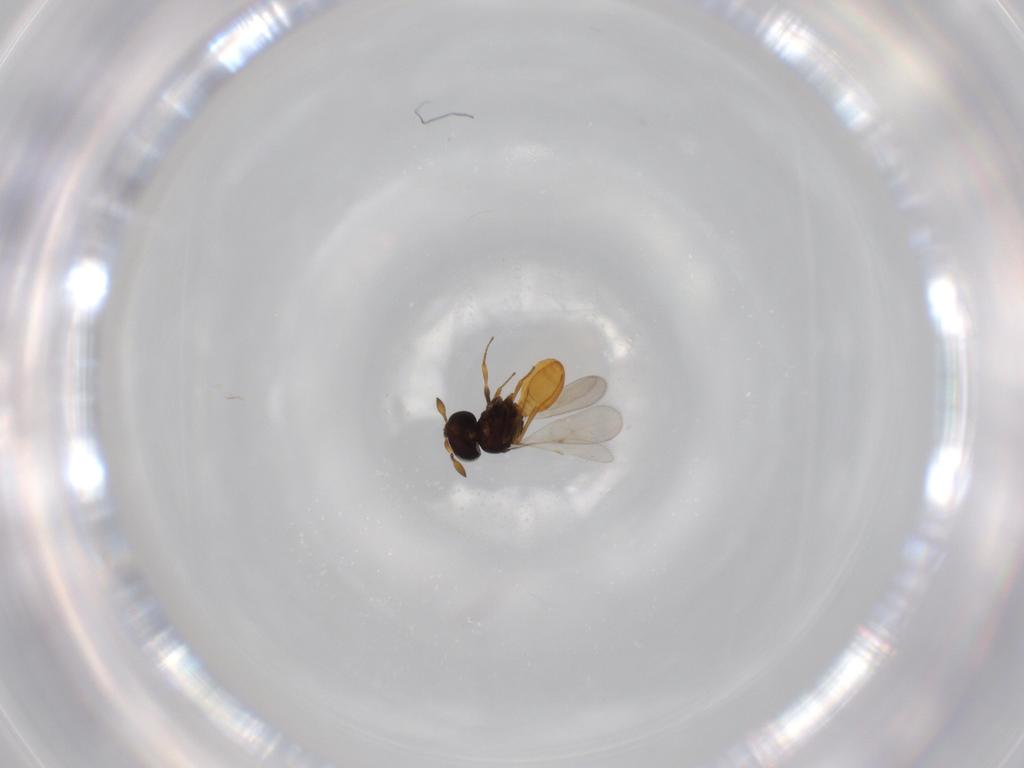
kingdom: Animalia
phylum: Arthropoda
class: Insecta
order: Hymenoptera
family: Scelionidae
